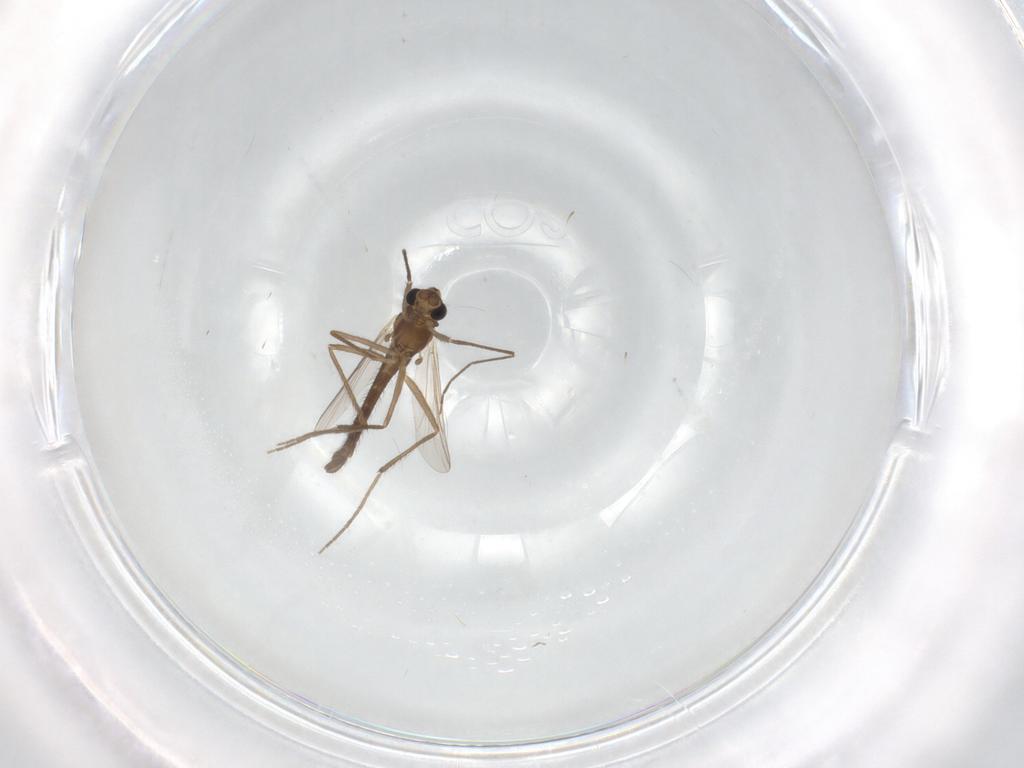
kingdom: Animalia
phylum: Arthropoda
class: Insecta
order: Diptera
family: Chironomidae
